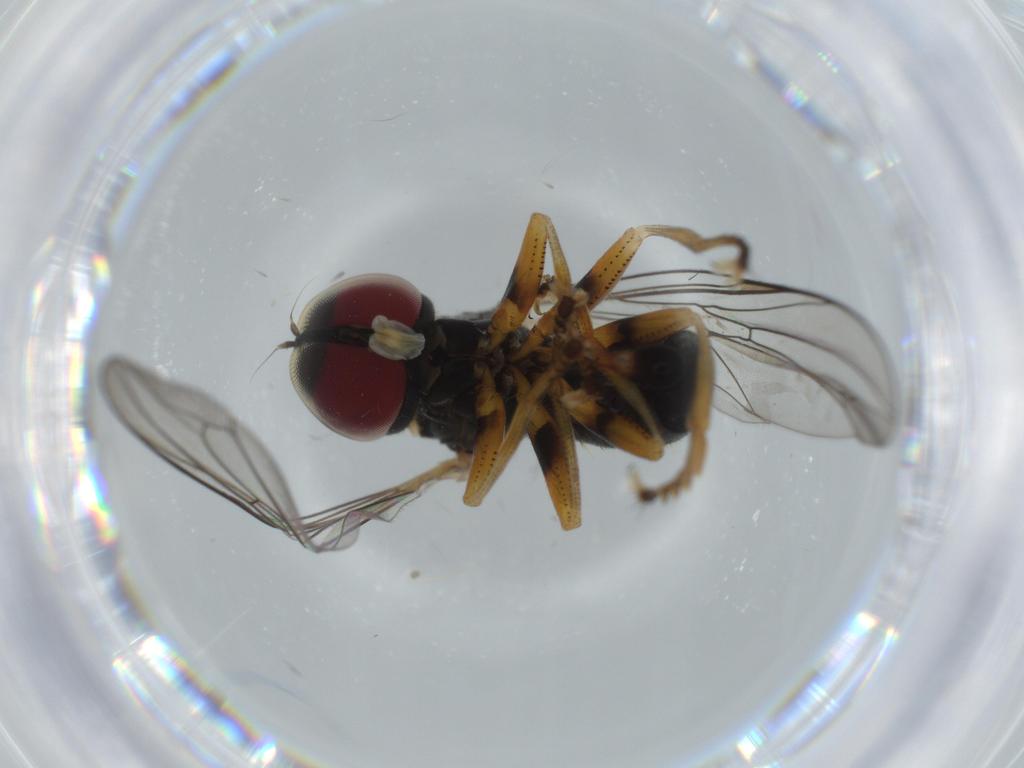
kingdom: Animalia
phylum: Arthropoda
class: Insecta
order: Diptera
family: Sciaridae
